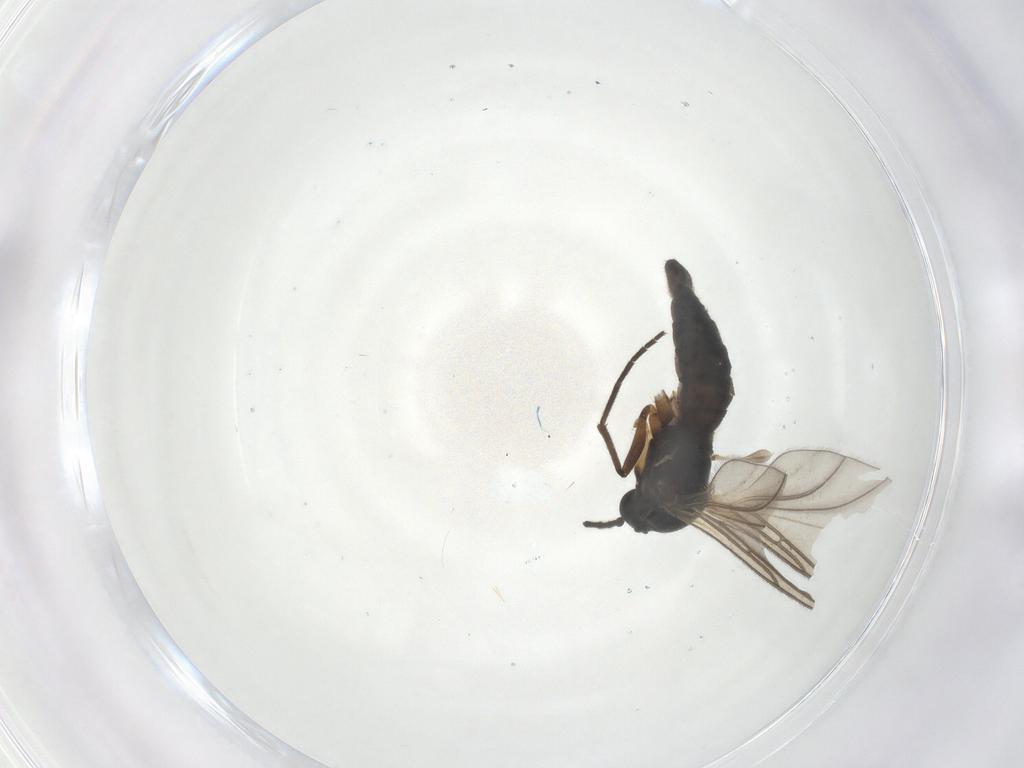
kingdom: Animalia
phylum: Arthropoda
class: Insecta
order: Diptera
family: Sciaridae
